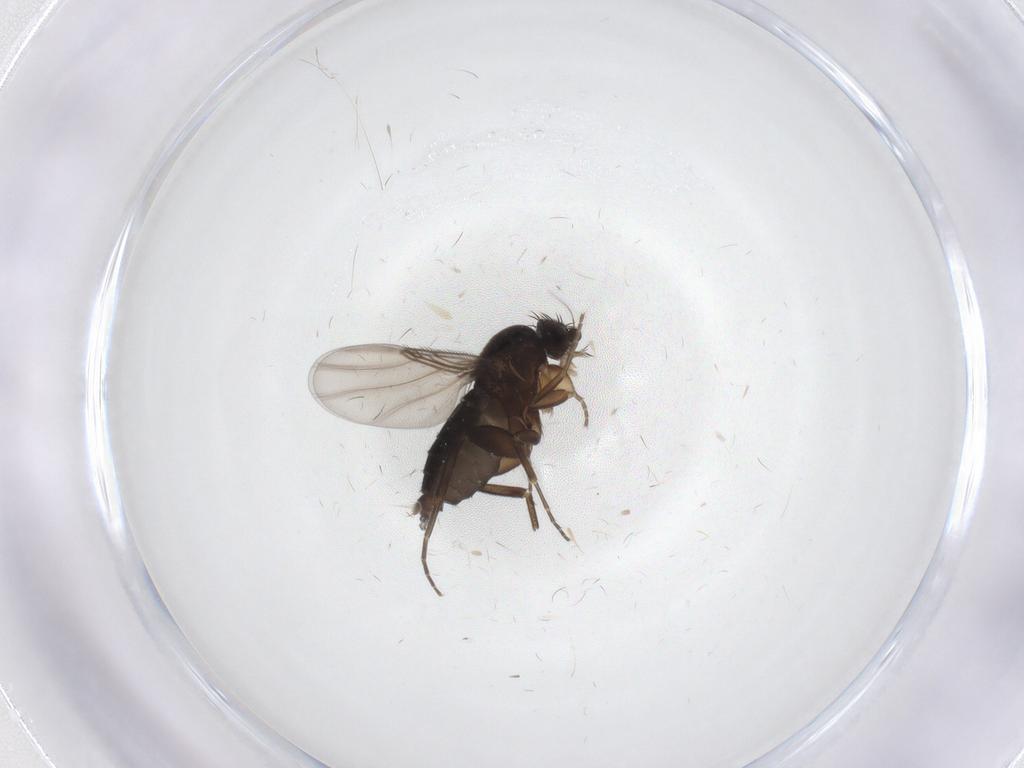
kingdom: Animalia
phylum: Arthropoda
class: Insecta
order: Diptera
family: Phoridae
